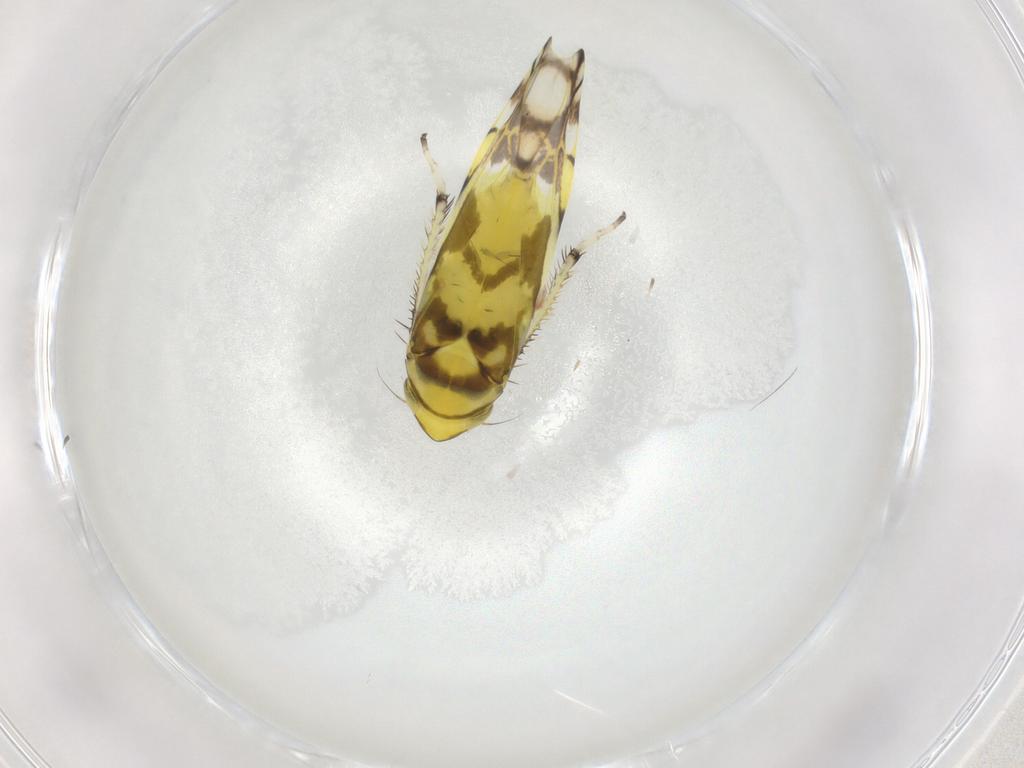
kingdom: Animalia
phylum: Arthropoda
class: Insecta
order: Hemiptera
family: Cicadellidae
